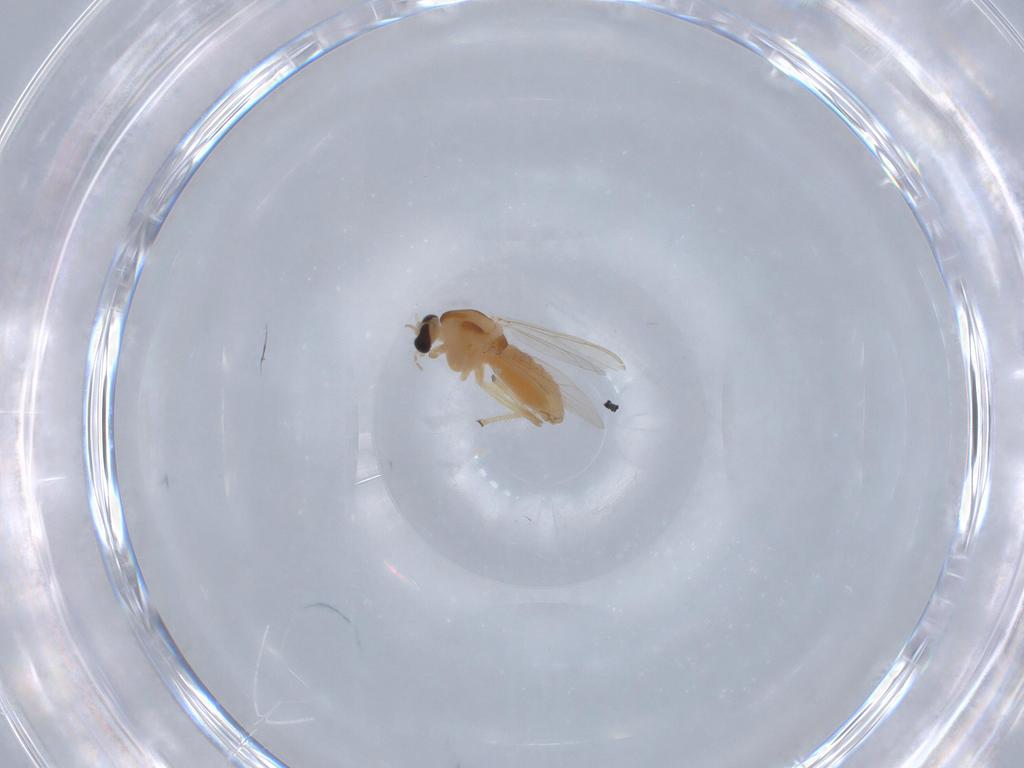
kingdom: Animalia
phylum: Arthropoda
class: Insecta
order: Diptera
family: Chironomidae
